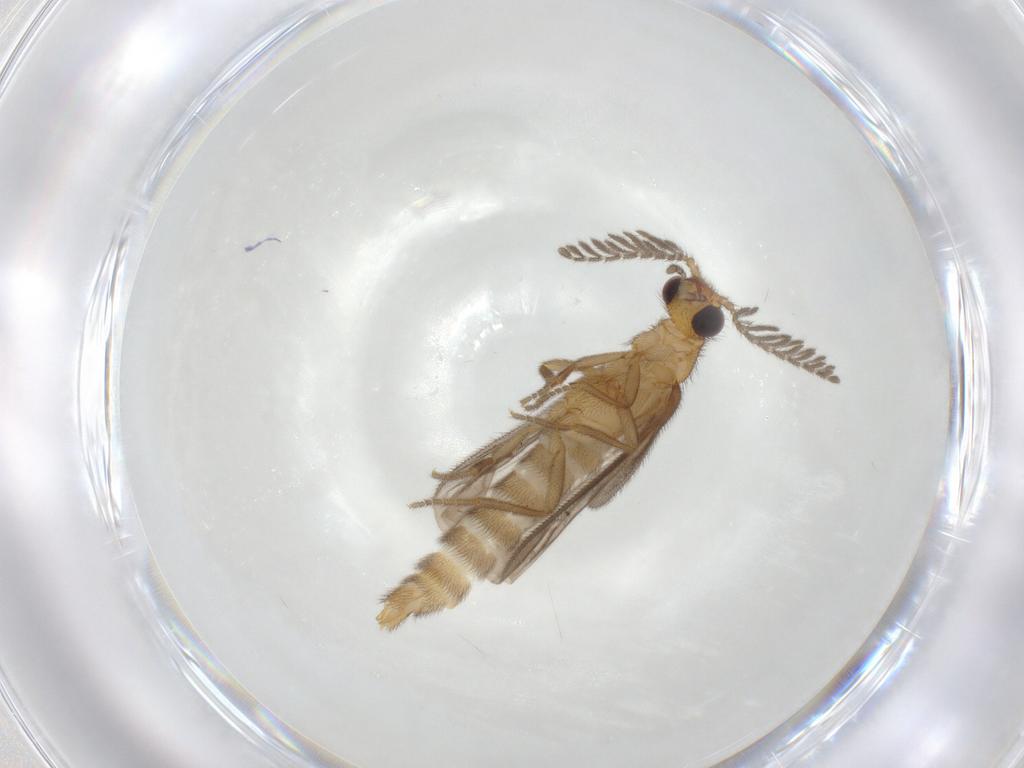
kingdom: Animalia
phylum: Arthropoda
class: Insecta
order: Coleoptera
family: Phengodidae
